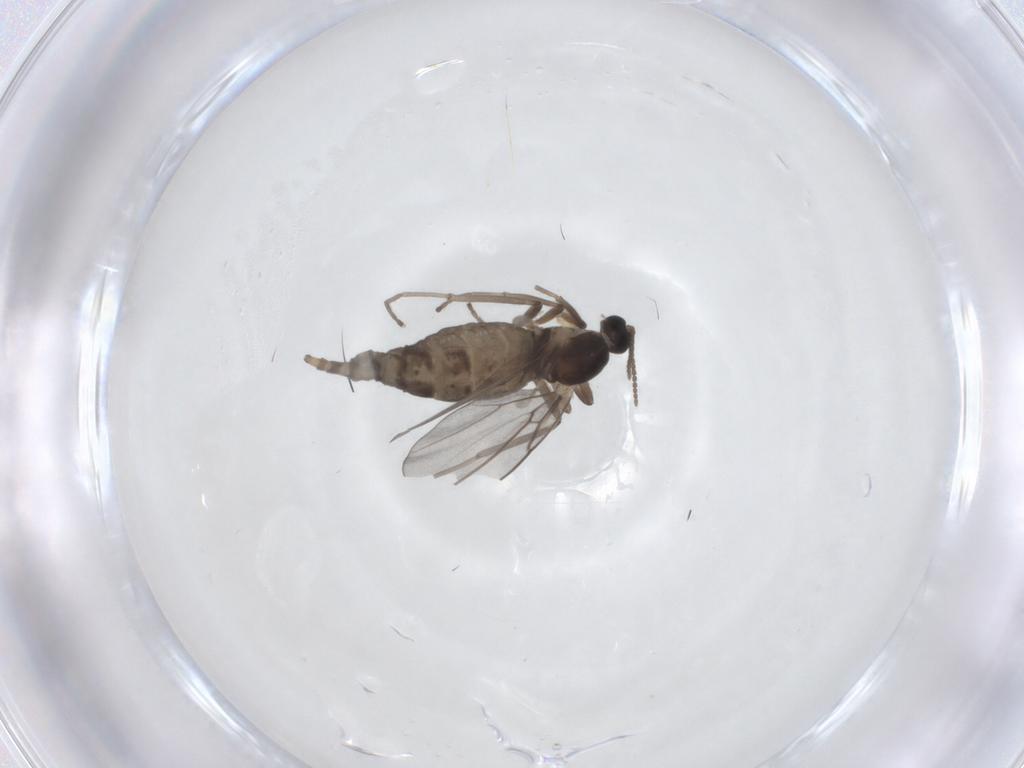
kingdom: Animalia
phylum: Arthropoda
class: Insecta
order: Diptera
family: Cecidomyiidae
